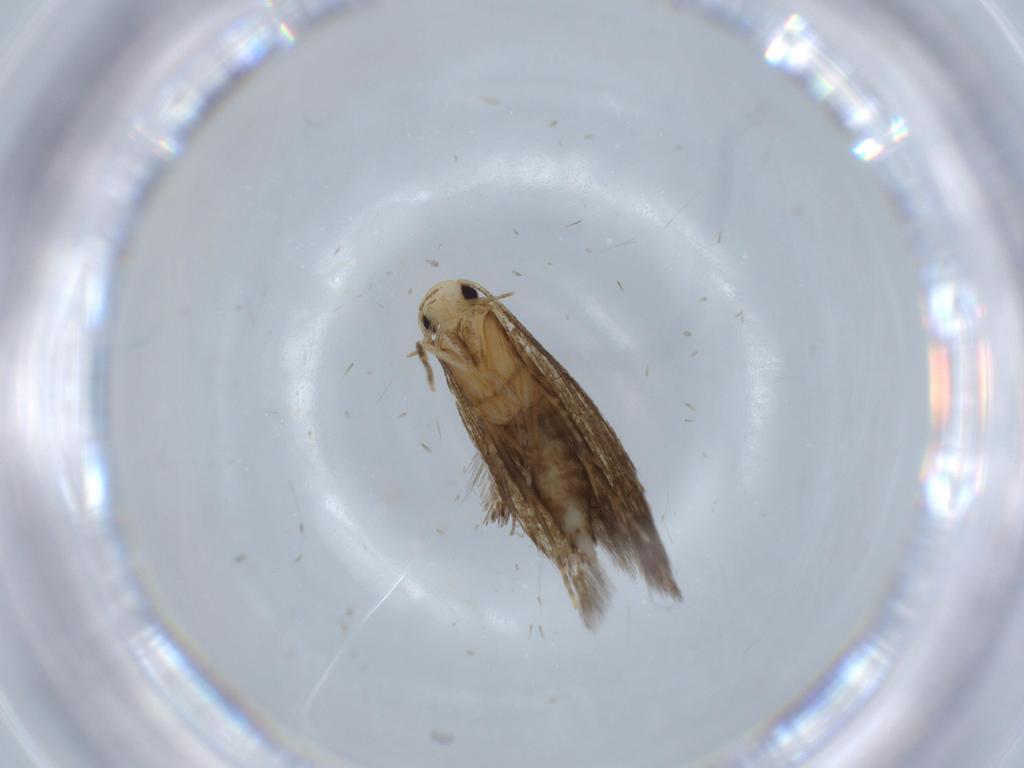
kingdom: Animalia
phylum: Arthropoda
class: Insecta
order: Lepidoptera
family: Tineidae
